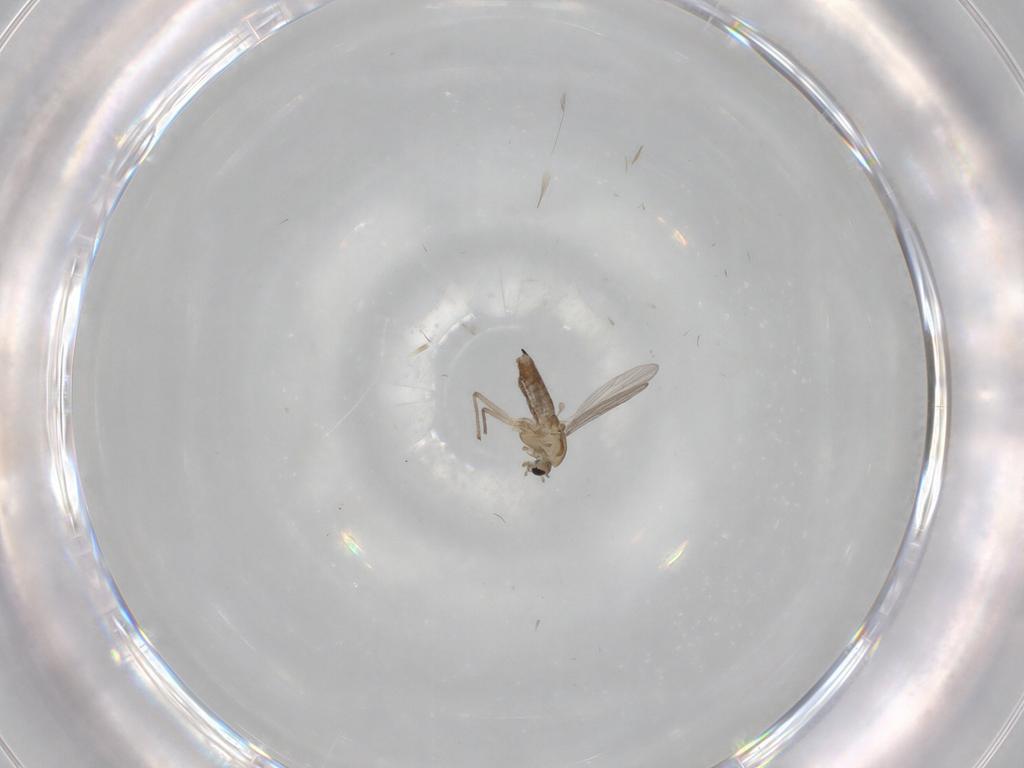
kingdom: Animalia
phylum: Arthropoda
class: Insecta
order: Diptera
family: Chironomidae
